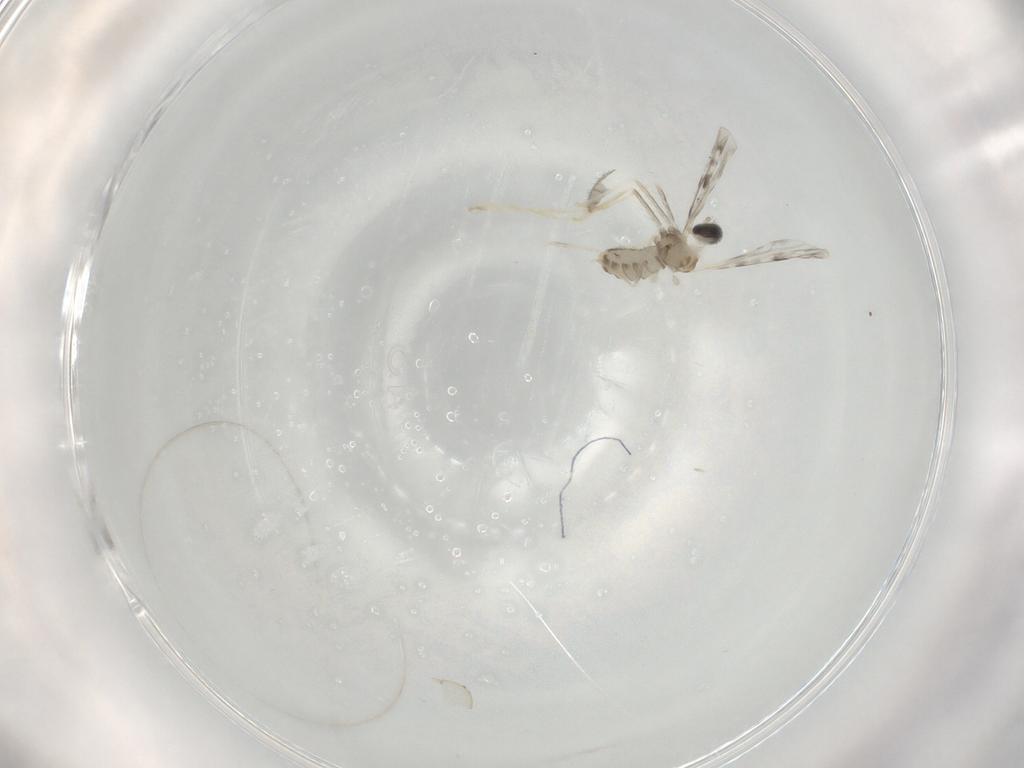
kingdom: Animalia
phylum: Arthropoda
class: Insecta
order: Diptera
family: Cecidomyiidae
